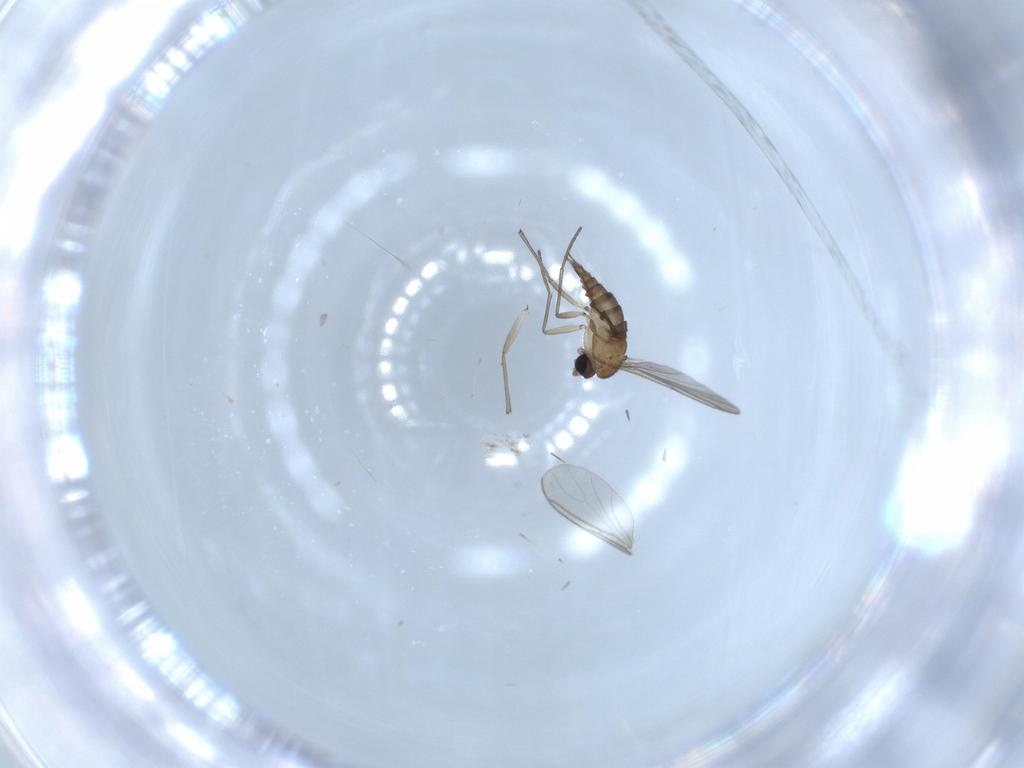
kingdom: Animalia
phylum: Arthropoda
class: Insecta
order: Diptera
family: Sciaridae
